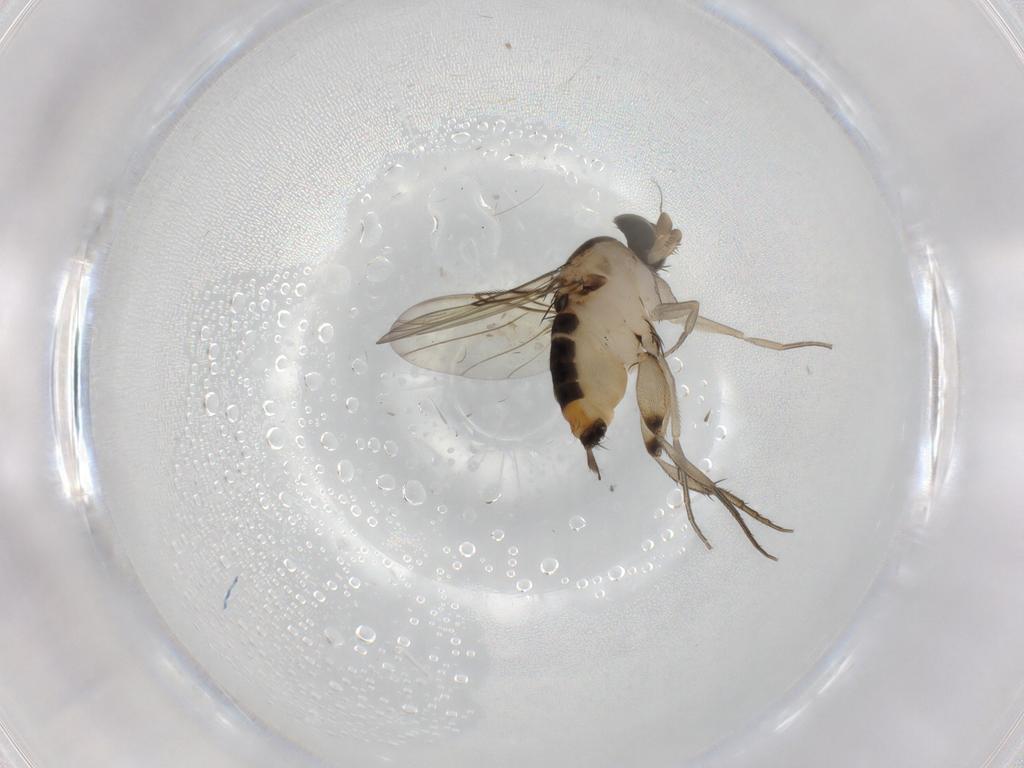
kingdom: Animalia
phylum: Arthropoda
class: Insecta
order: Diptera
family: Phoridae
